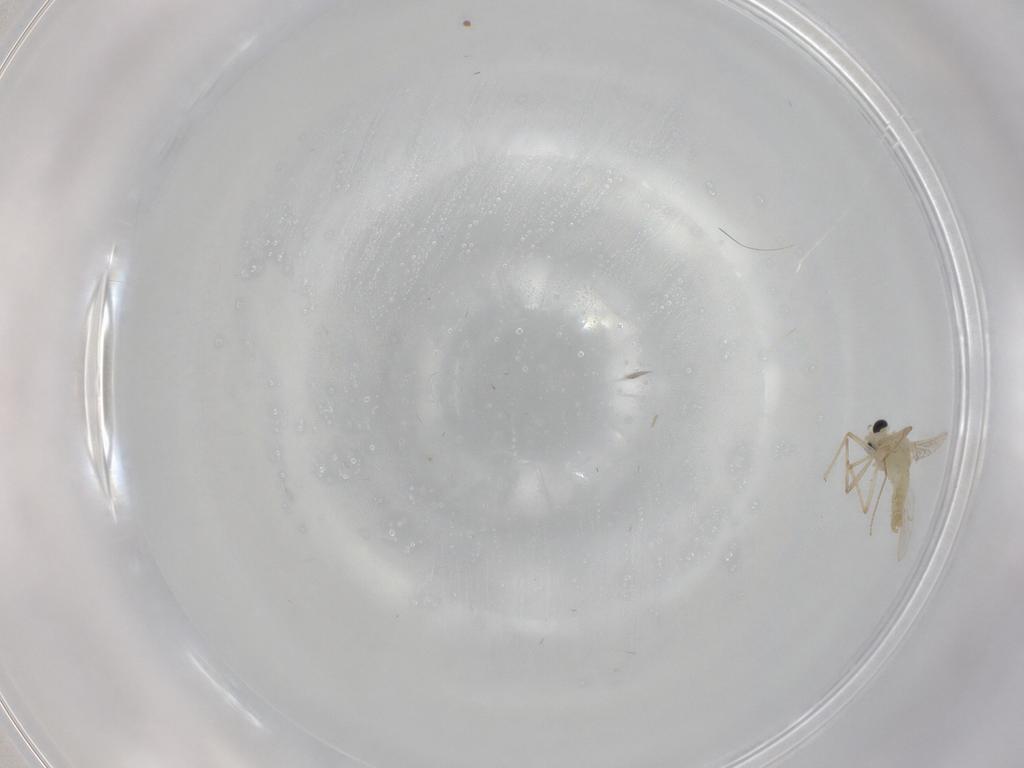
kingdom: Animalia
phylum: Arthropoda
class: Insecta
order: Diptera
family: Chironomidae
